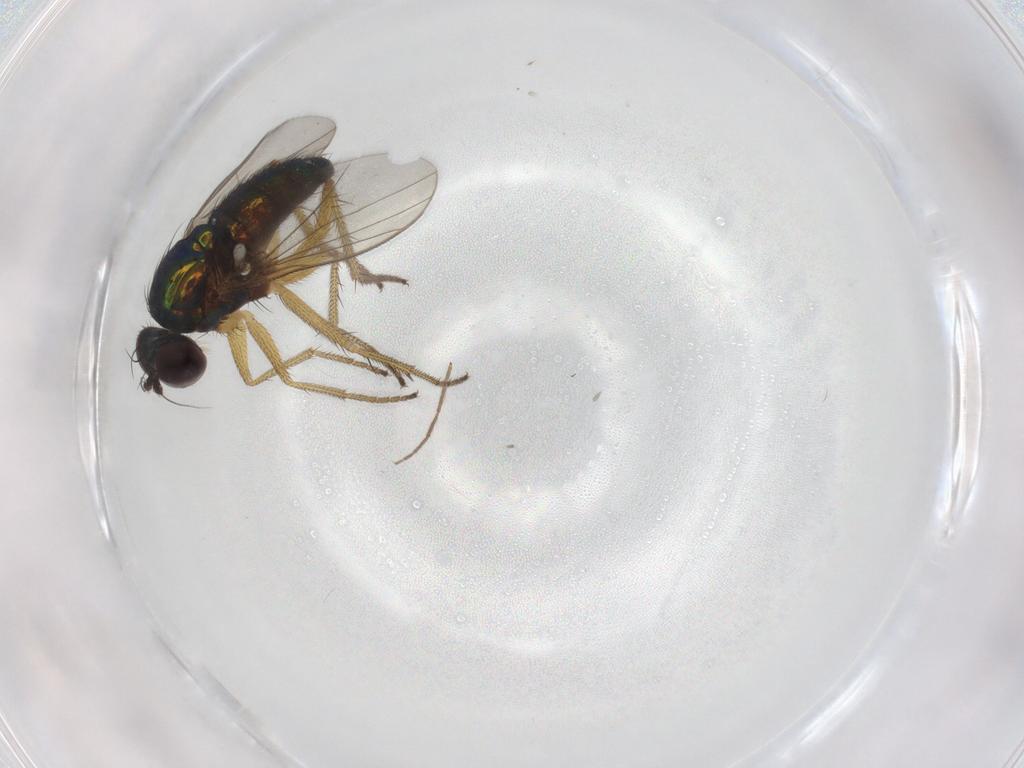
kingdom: Animalia
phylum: Arthropoda
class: Insecta
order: Diptera
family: Dolichopodidae
